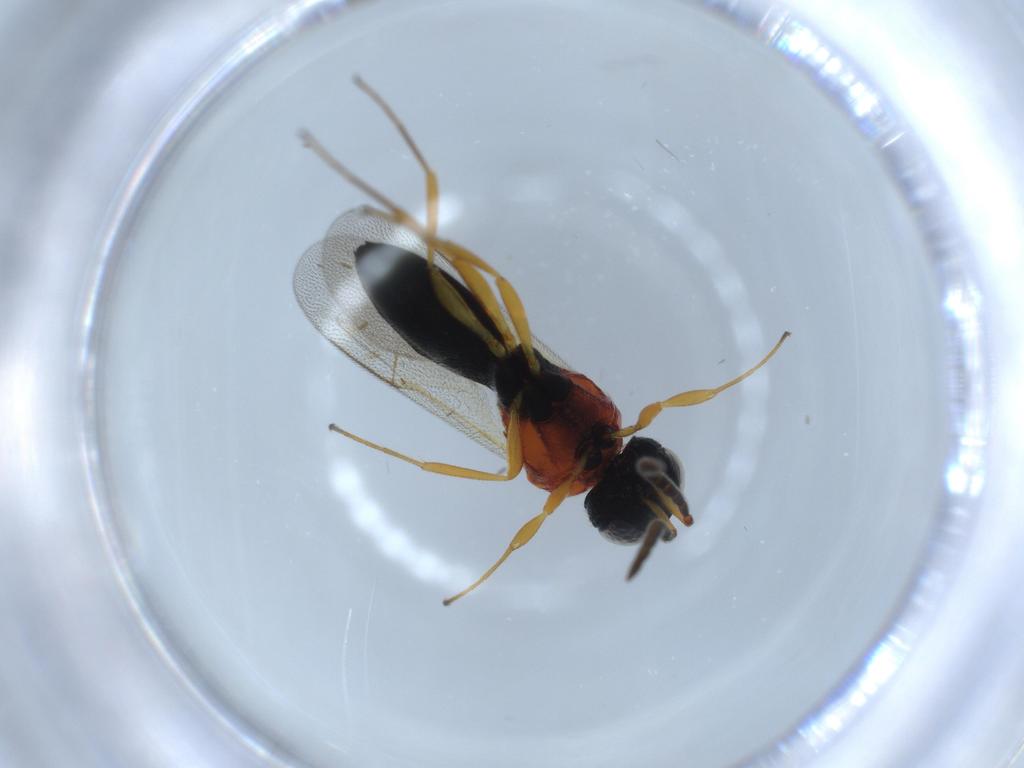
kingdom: Animalia
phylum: Arthropoda
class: Insecta
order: Hymenoptera
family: Scelionidae
